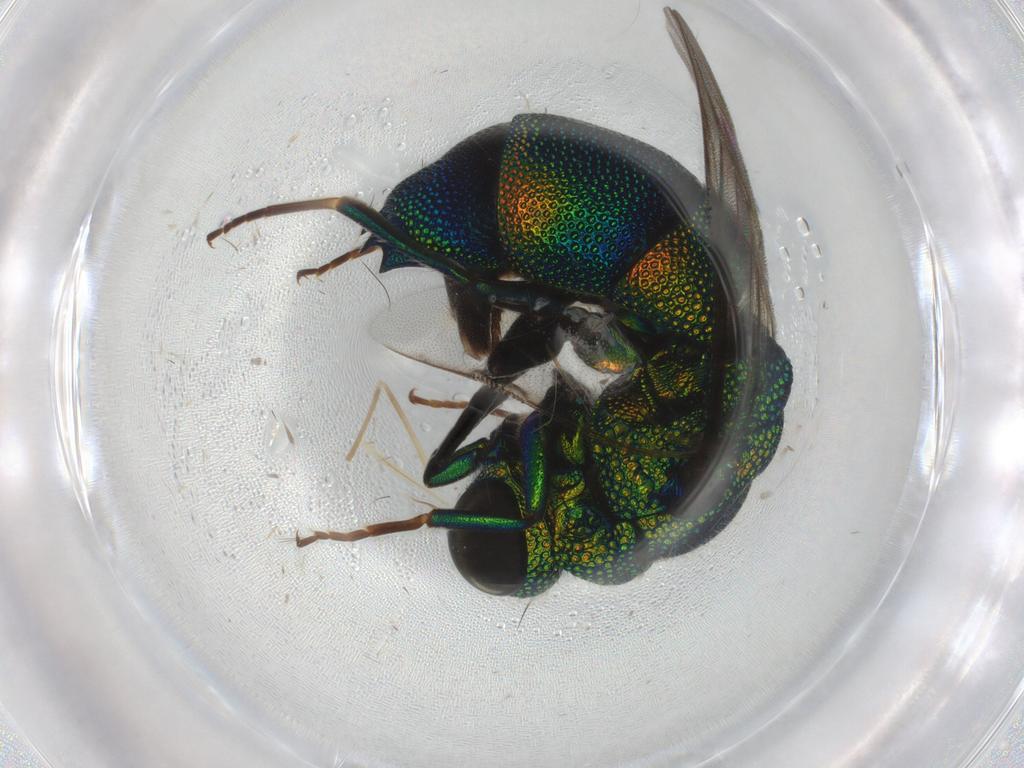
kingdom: Animalia
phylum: Arthropoda
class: Insecta
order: Hymenoptera
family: Chrysididae
